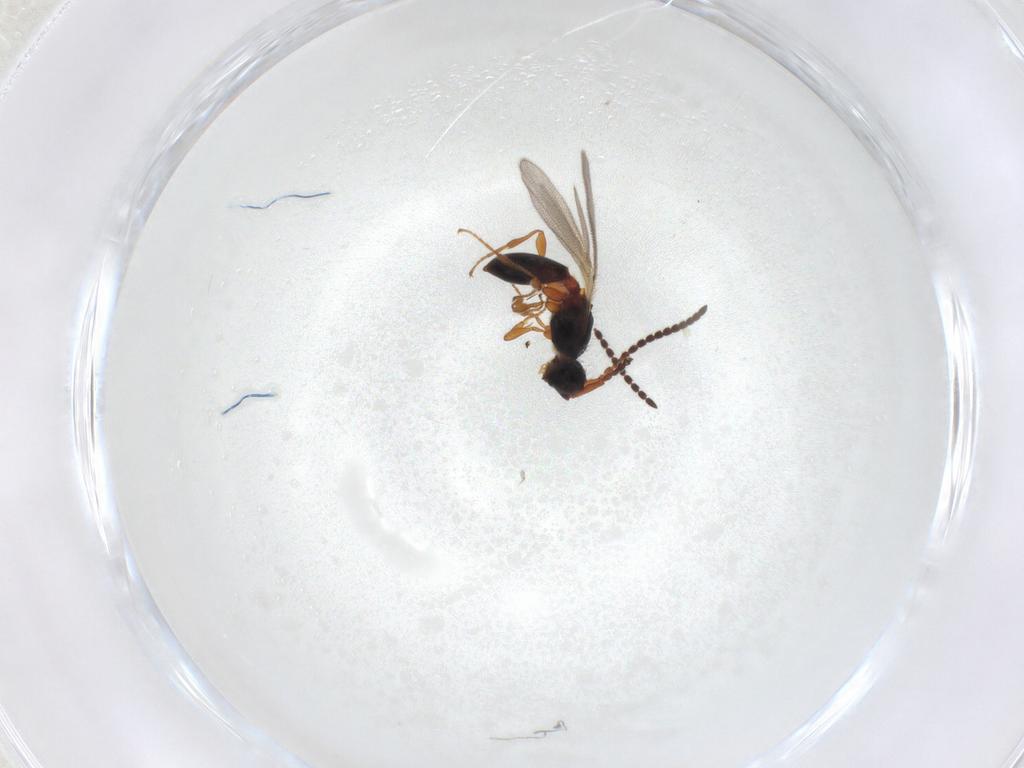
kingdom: Animalia
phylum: Arthropoda
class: Insecta
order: Hymenoptera
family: Diapriidae
